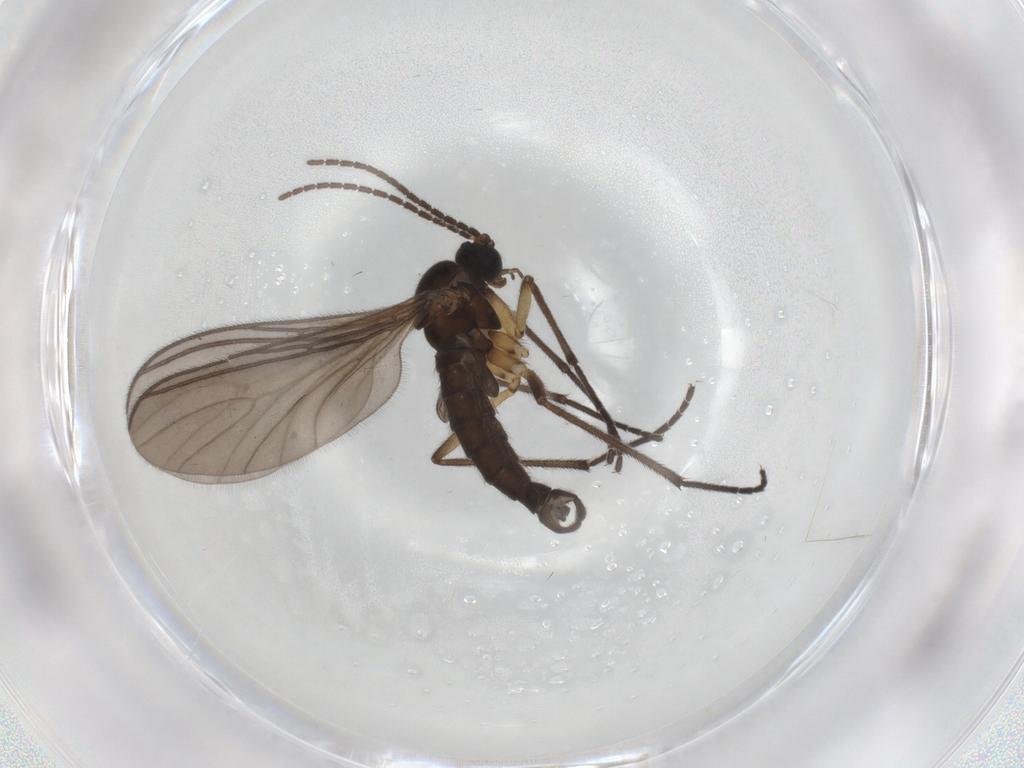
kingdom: Animalia
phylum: Arthropoda
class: Insecta
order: Diptera
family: Sciaridae
